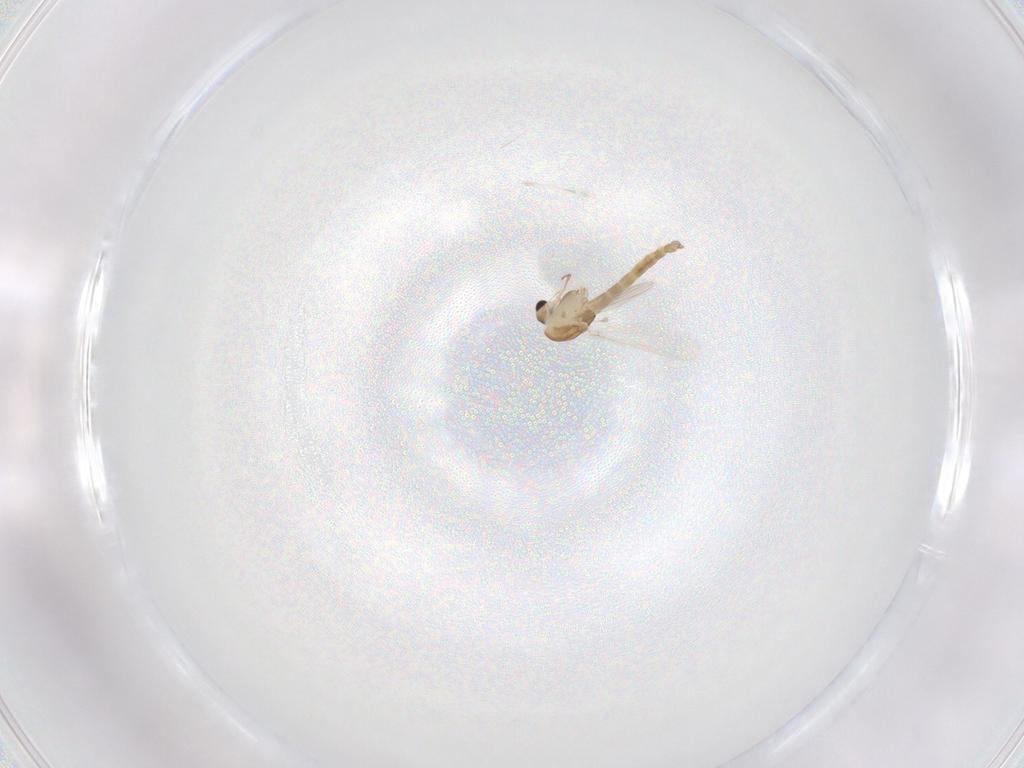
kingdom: Animalia
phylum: Arthropoda
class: Insecta
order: Diptera
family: Chironomidae
